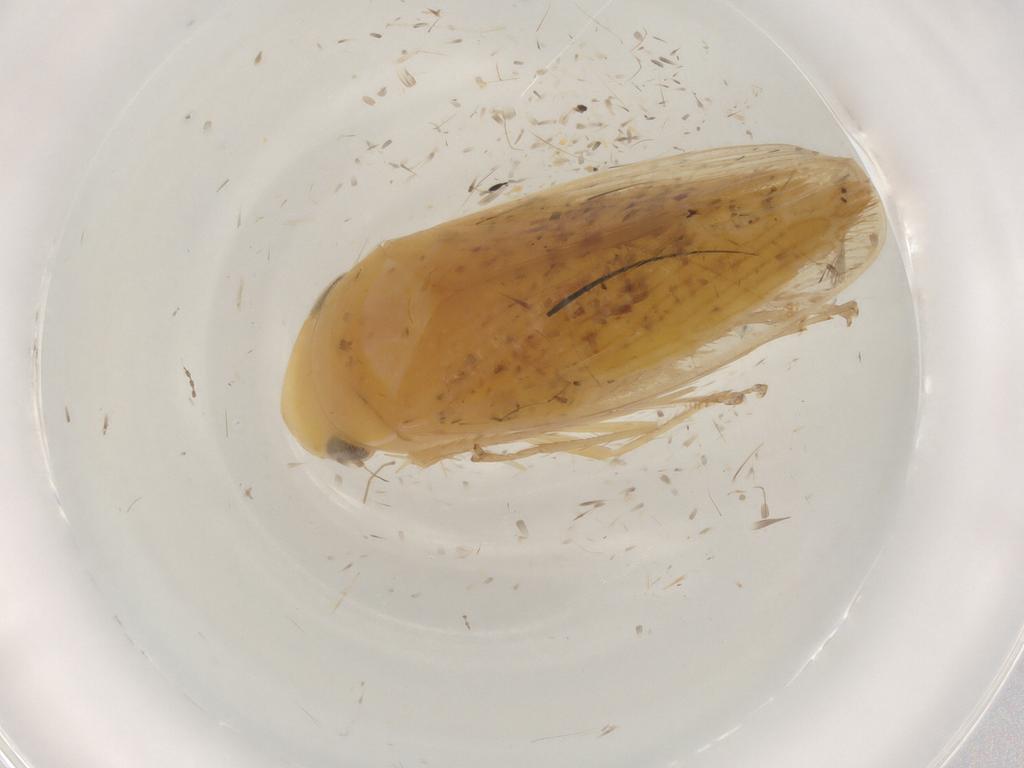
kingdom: Animalia
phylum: Arthropoda
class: Insecta
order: Hemiptera
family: Cicadellidae
